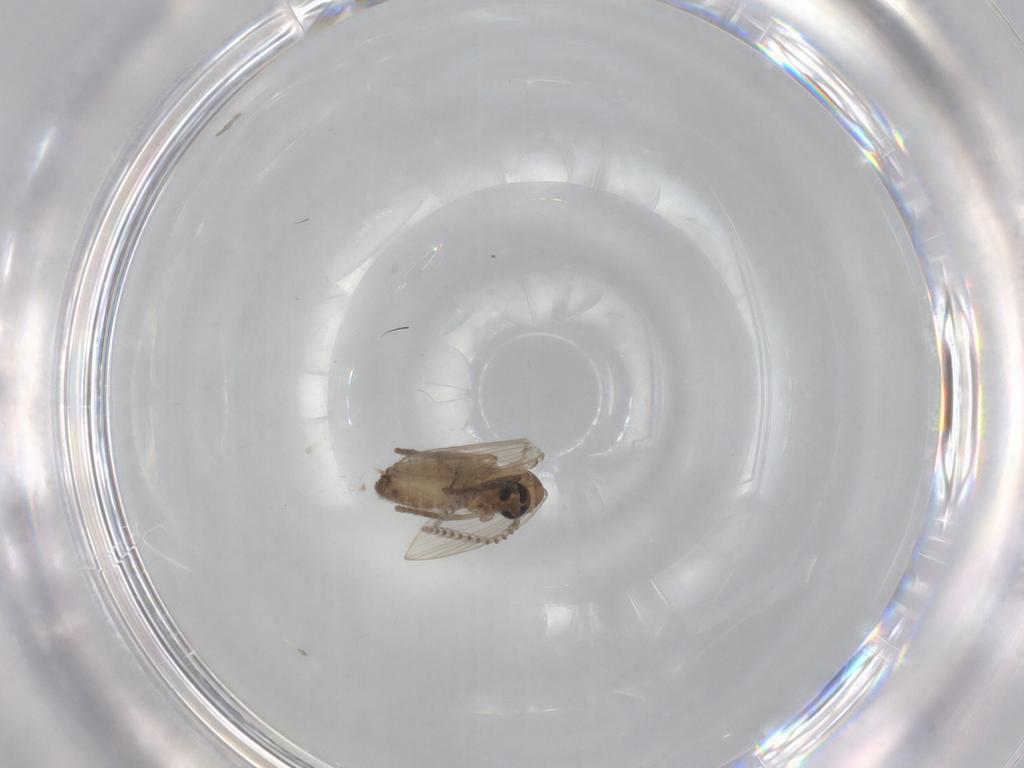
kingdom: Animalia
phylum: Arthropoda
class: Insecta
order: Diptera
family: Psychodidae
